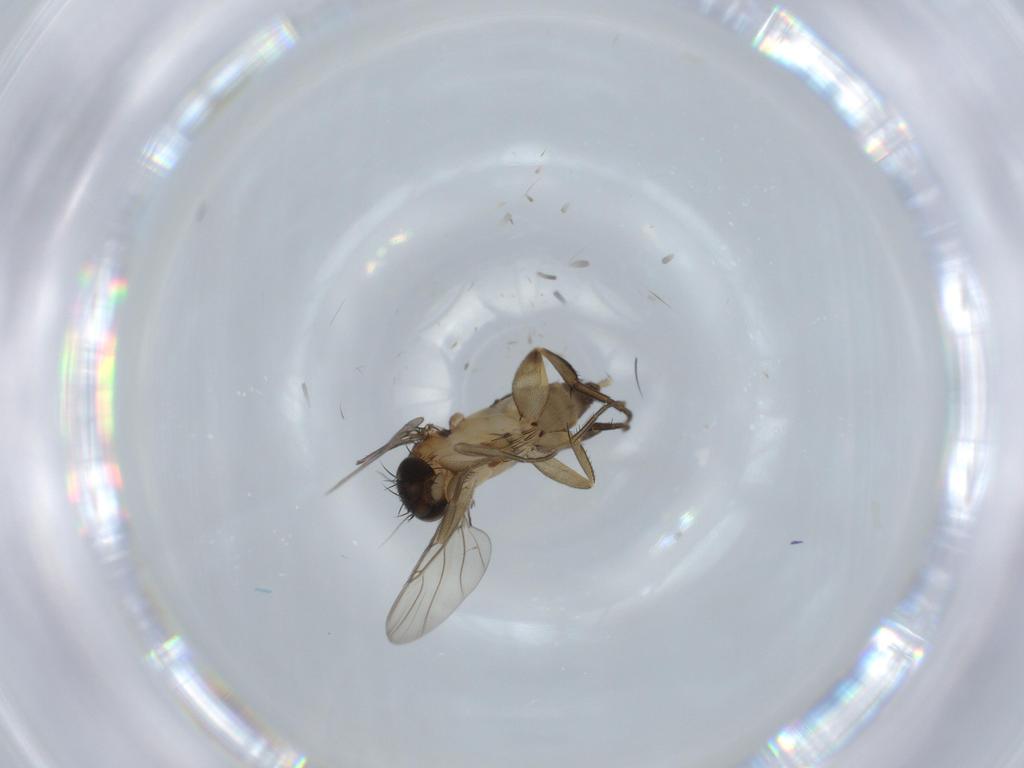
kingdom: Animalia
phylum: Arthropoda
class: Insecta
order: Diptera
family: Phoridae
